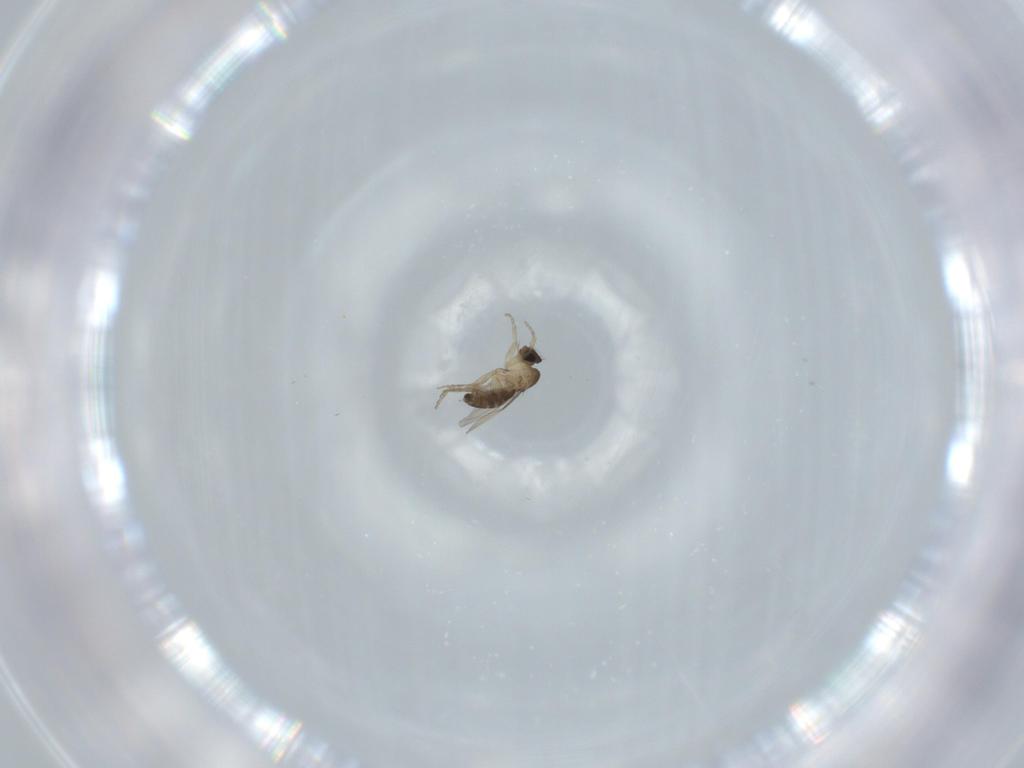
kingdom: Animalia
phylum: Arthropoda
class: Insecta
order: Diptera
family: Phoridae
